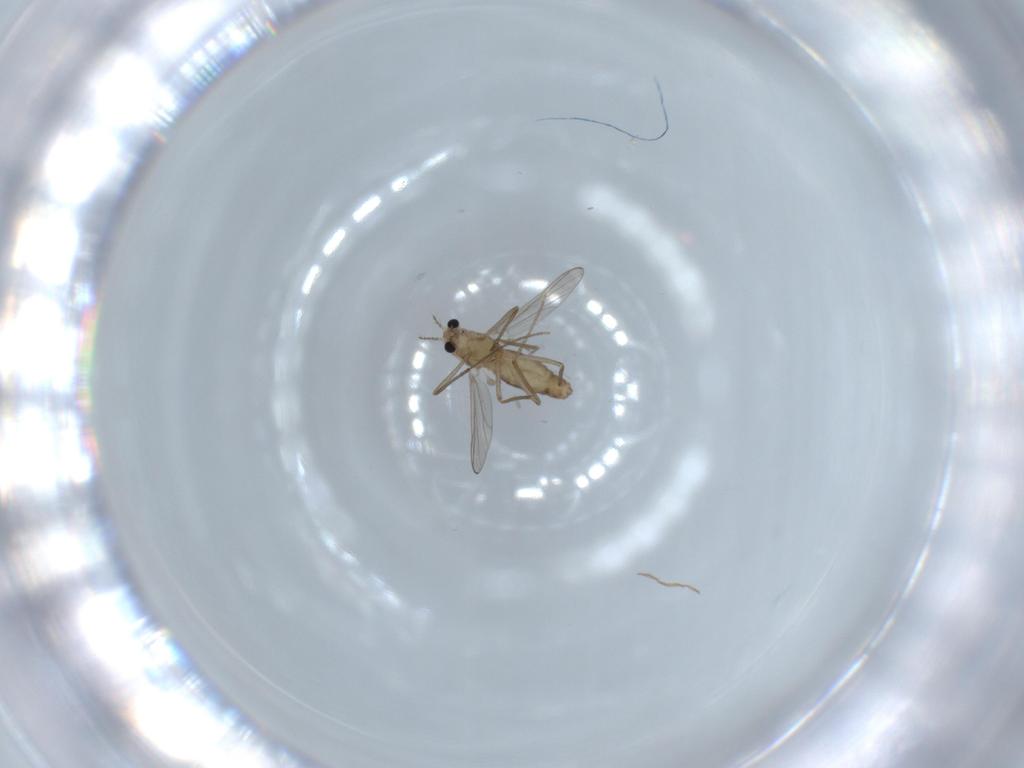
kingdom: Animalia
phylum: Arthropoda
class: Insecta
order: Diptera
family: Chironomidae
